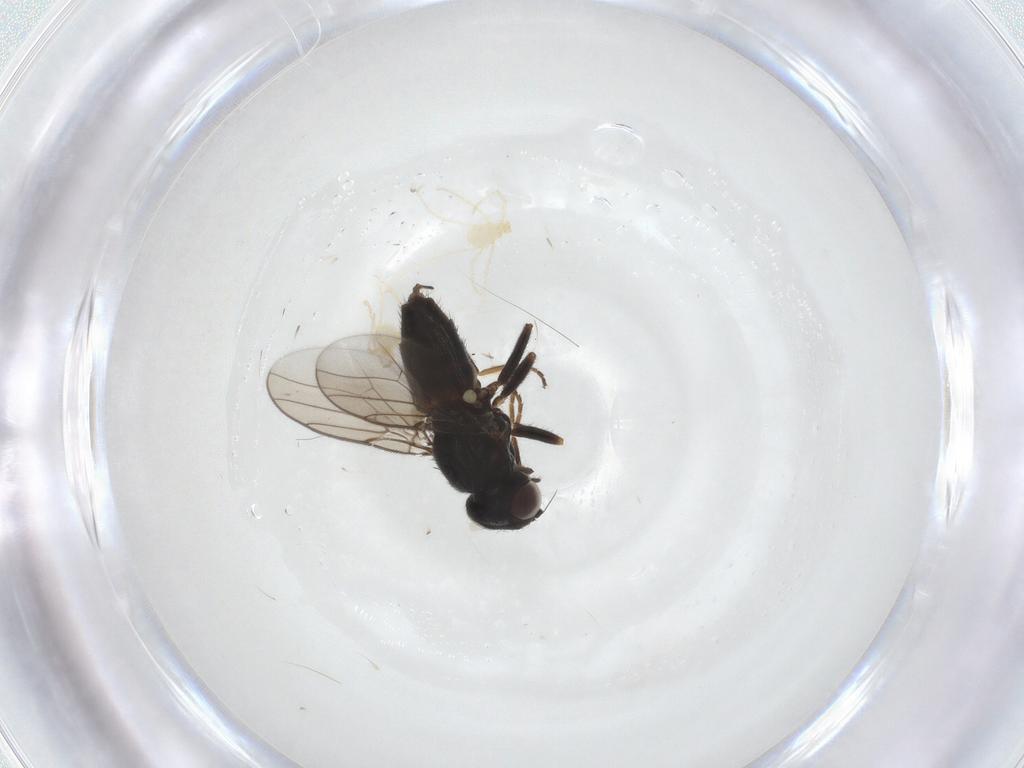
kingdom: Animalia
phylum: Arthropoda
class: Insecta
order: Diptera
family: Chloropidae
